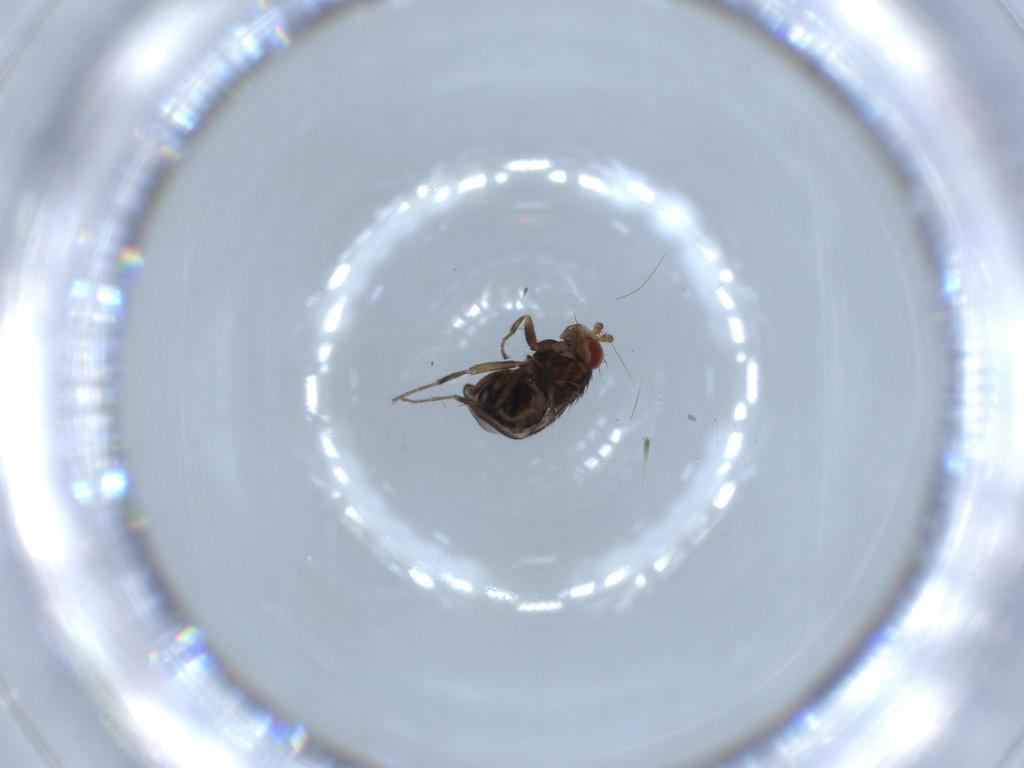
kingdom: Animalia
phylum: Arthropoda
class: Insecta
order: Diptera
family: Sphaeroceridae
